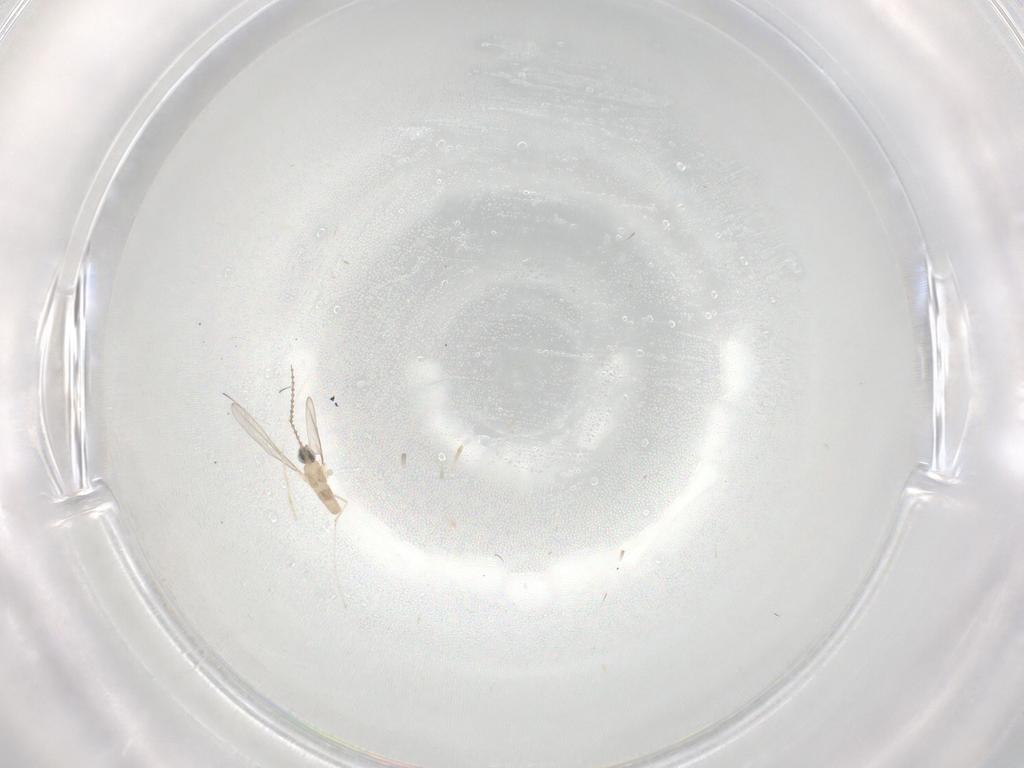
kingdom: Animalia
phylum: Arthropoda
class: Insecta
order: Diptera
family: Cecidomyiidae
